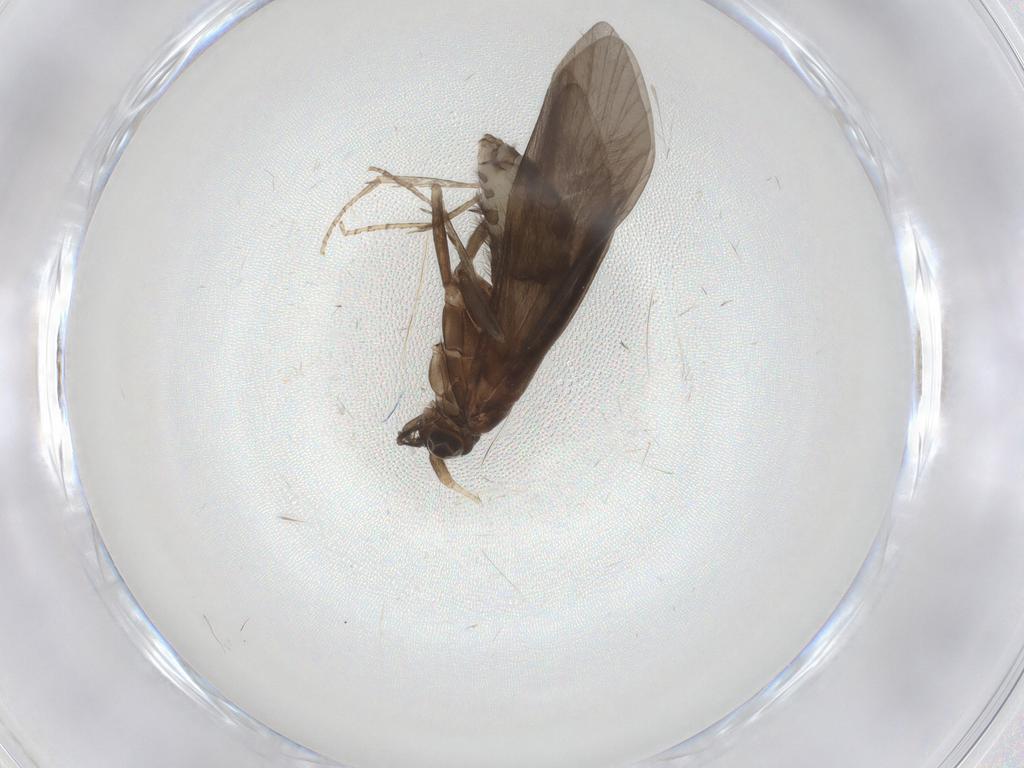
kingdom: Animalia
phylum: Arthropoda
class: Insecta
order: Trichoptera
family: Helicopsychidae
